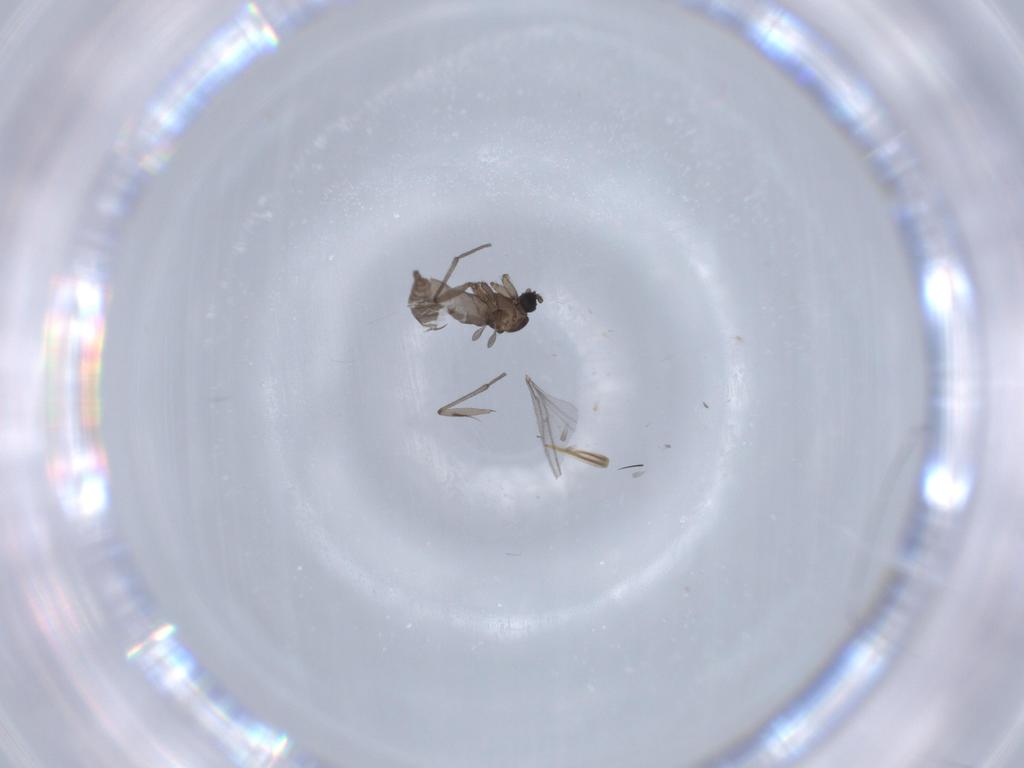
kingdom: Animalia
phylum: Arthropoda
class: Insecta
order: Diptera
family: Sciaridae
